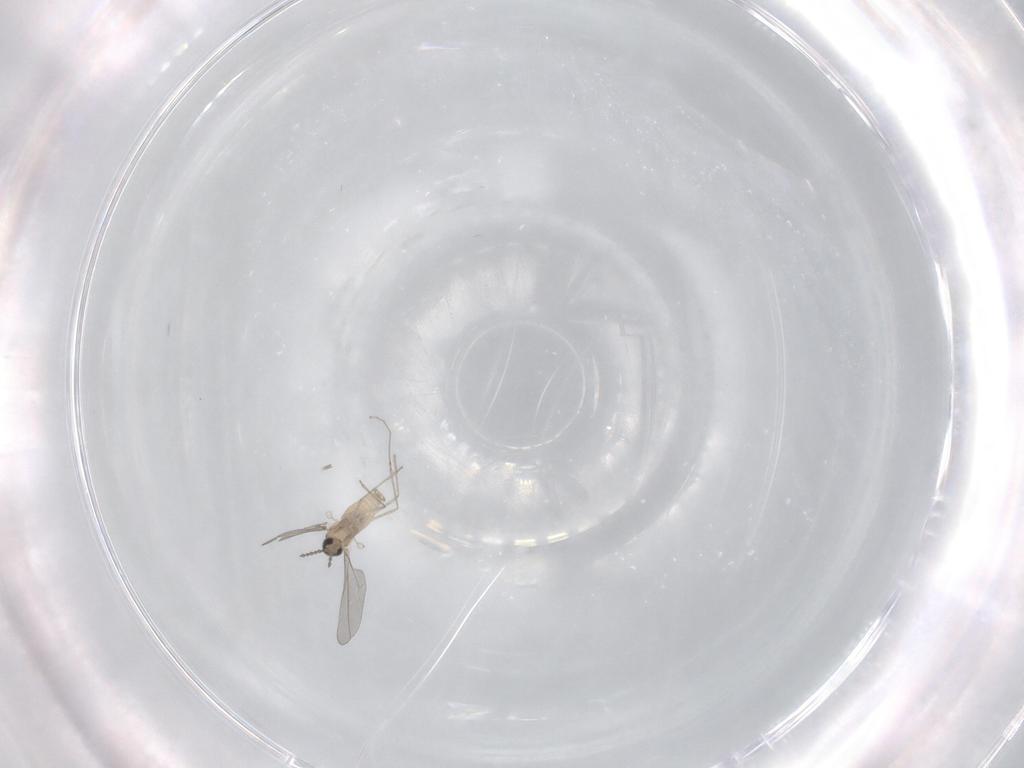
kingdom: Animalia
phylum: Arthropoda
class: Insecta
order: Diptera
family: Cecidomyiidae
